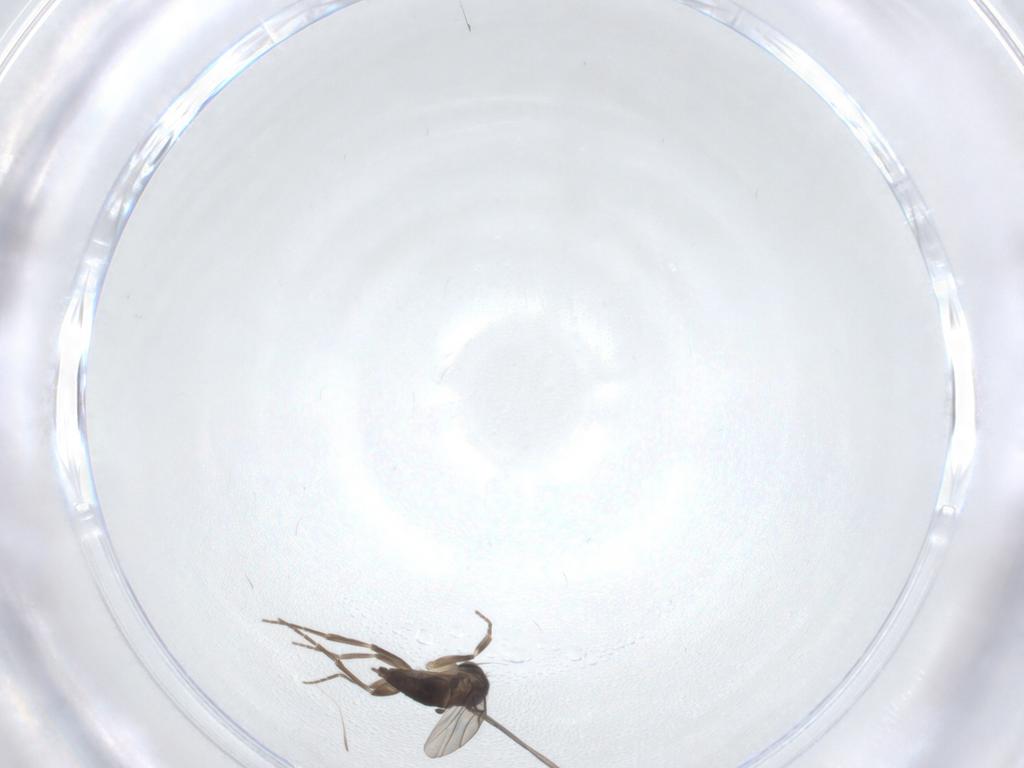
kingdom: Animalia
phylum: Arthropoda
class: Insecta
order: Diptera
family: Phoridae
